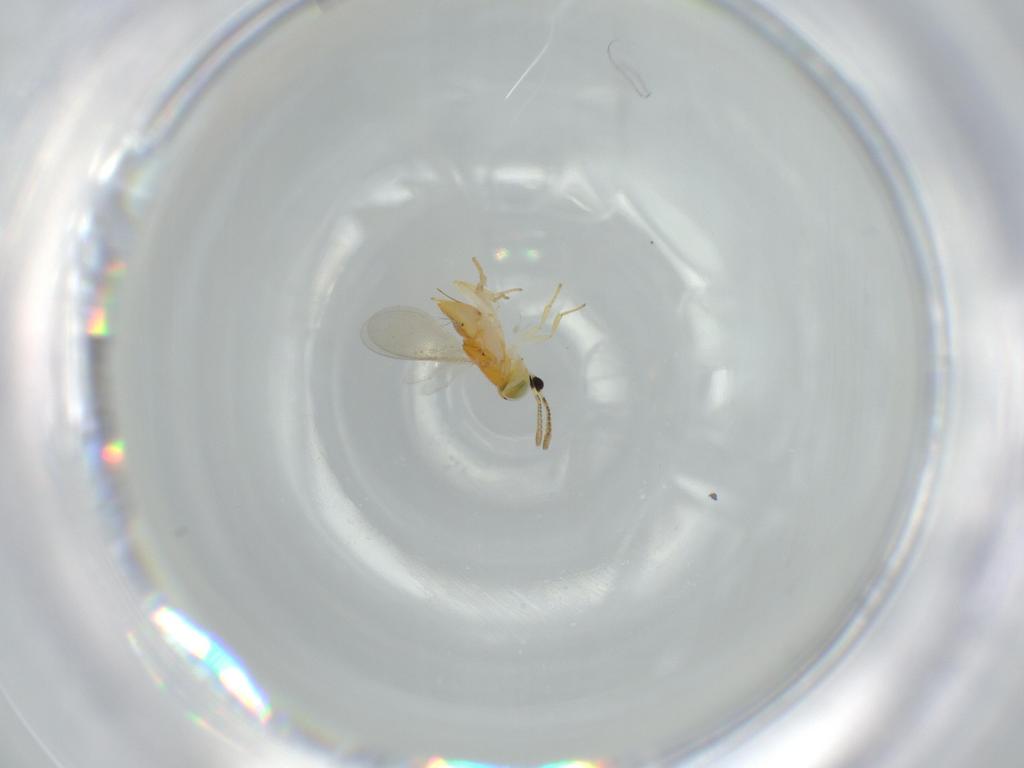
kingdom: Animalia
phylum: Arthropoda
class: Insecta
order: Hymenoptera
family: Bethylidae
